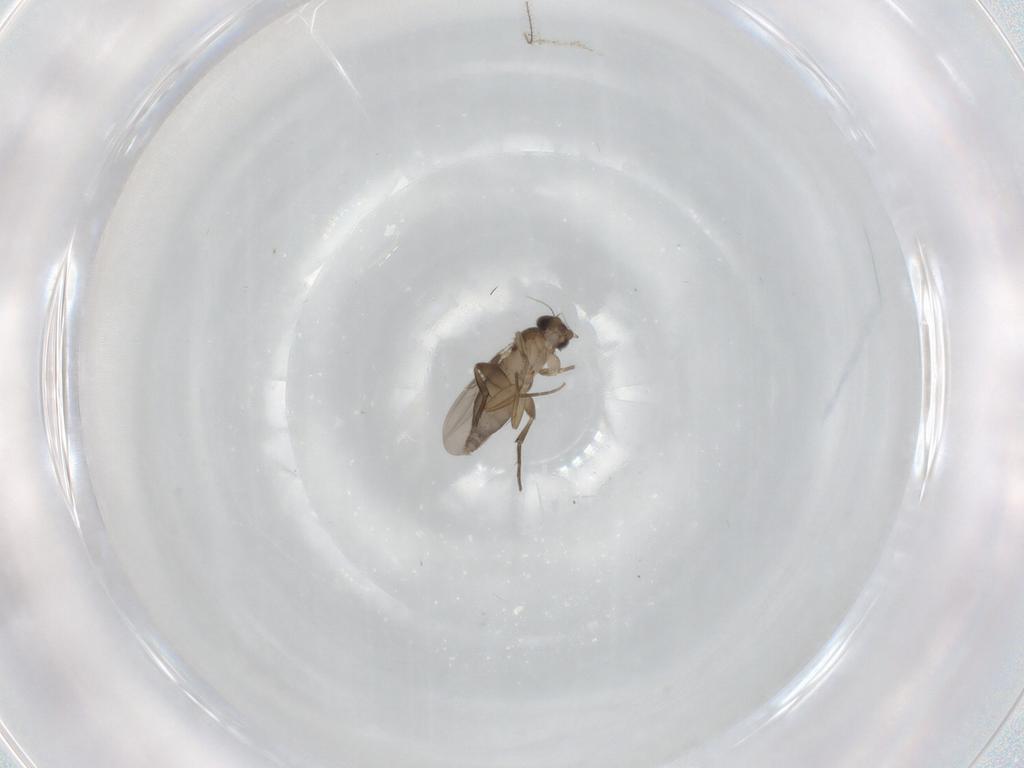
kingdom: Animalia
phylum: Arthropoda
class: Insecta
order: Diptera
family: Phoridae
